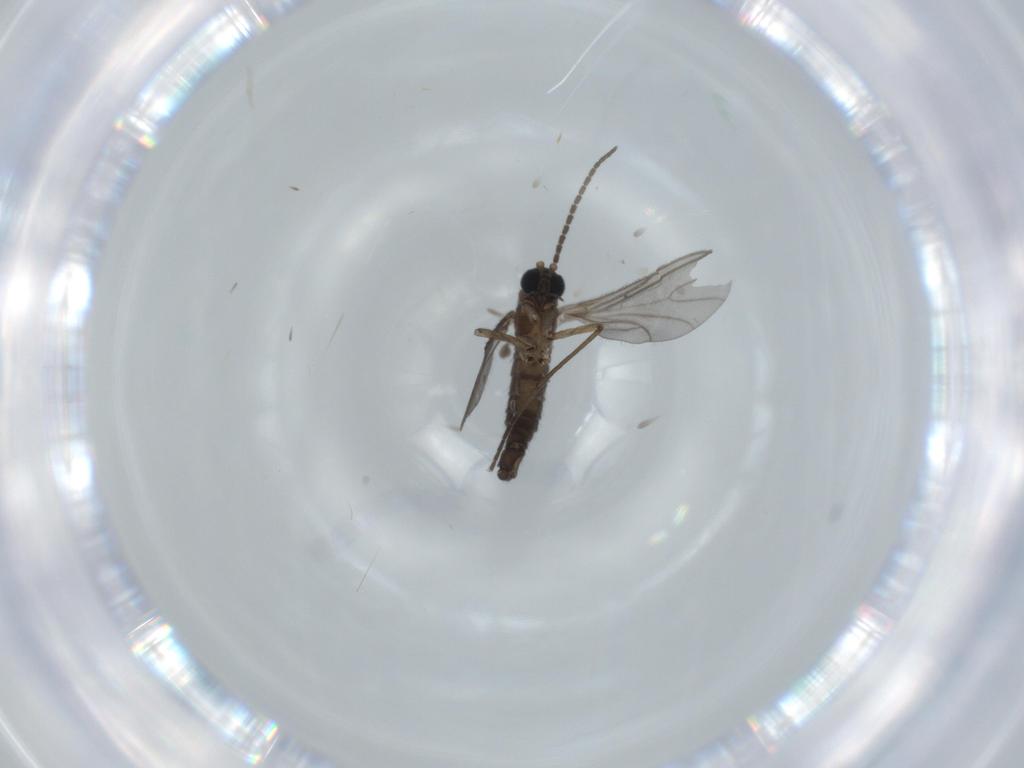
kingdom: Animalia
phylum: Arthropoda
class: Insecta
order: Diptera
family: Sciaridae
